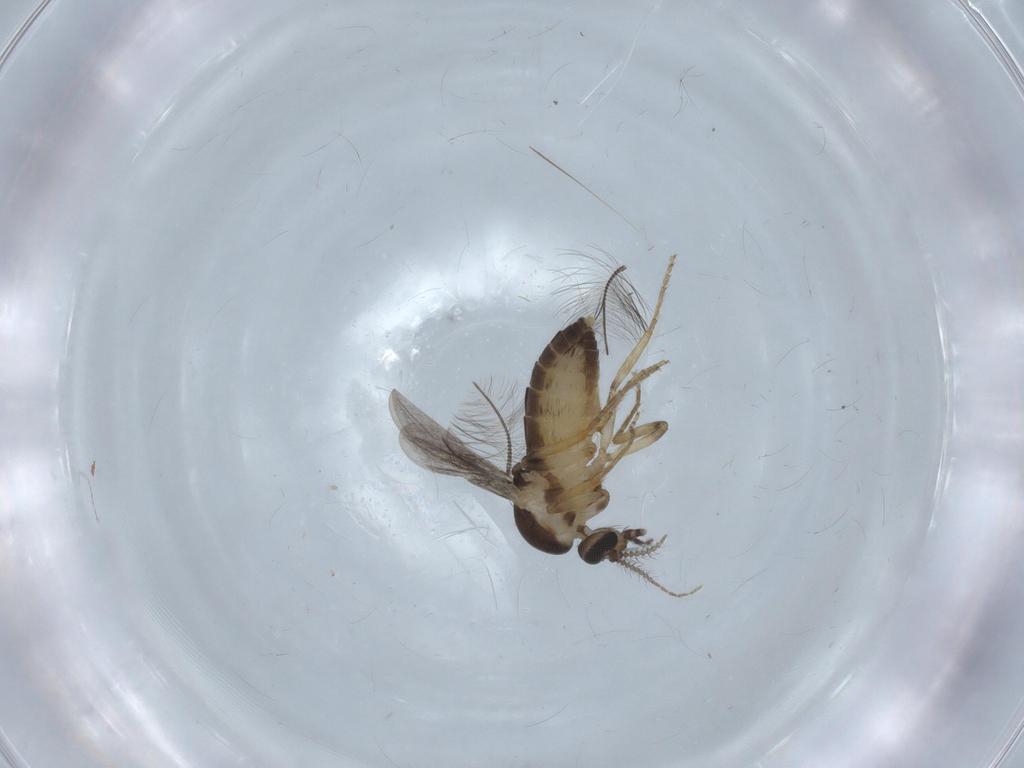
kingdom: Animalia
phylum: Arthropoda
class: Insecta
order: Diptera
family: Ceratopogonidae
